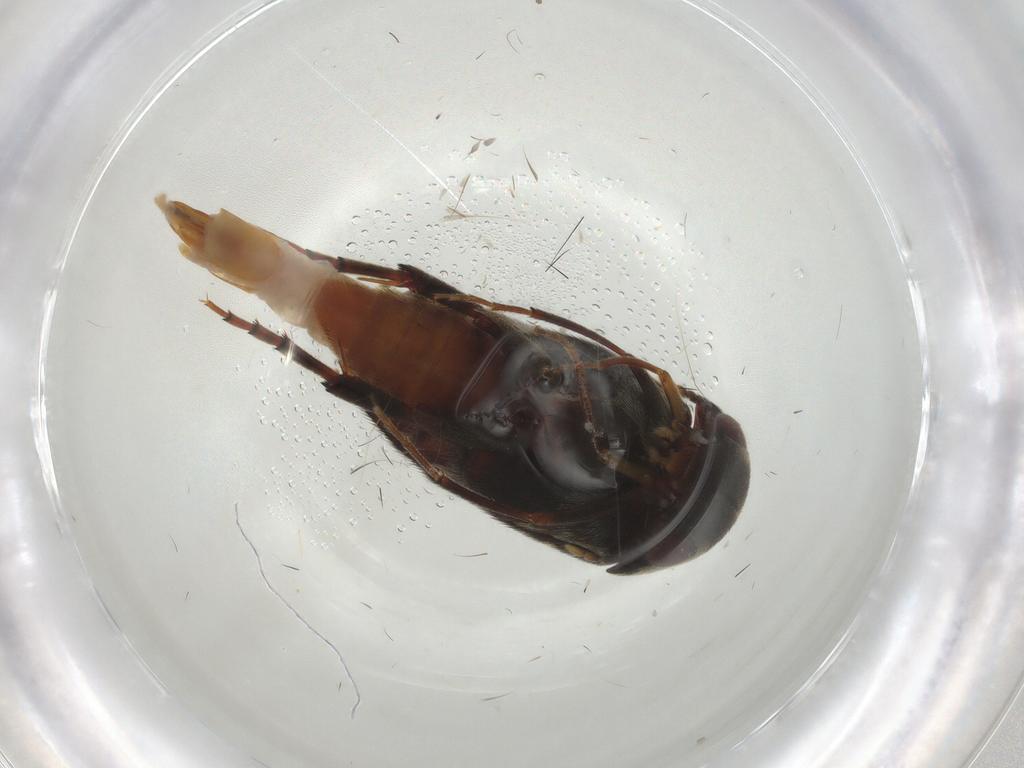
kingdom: Animalia
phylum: Arthropoda
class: Insecta
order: Coleoptera
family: Mordellidae
